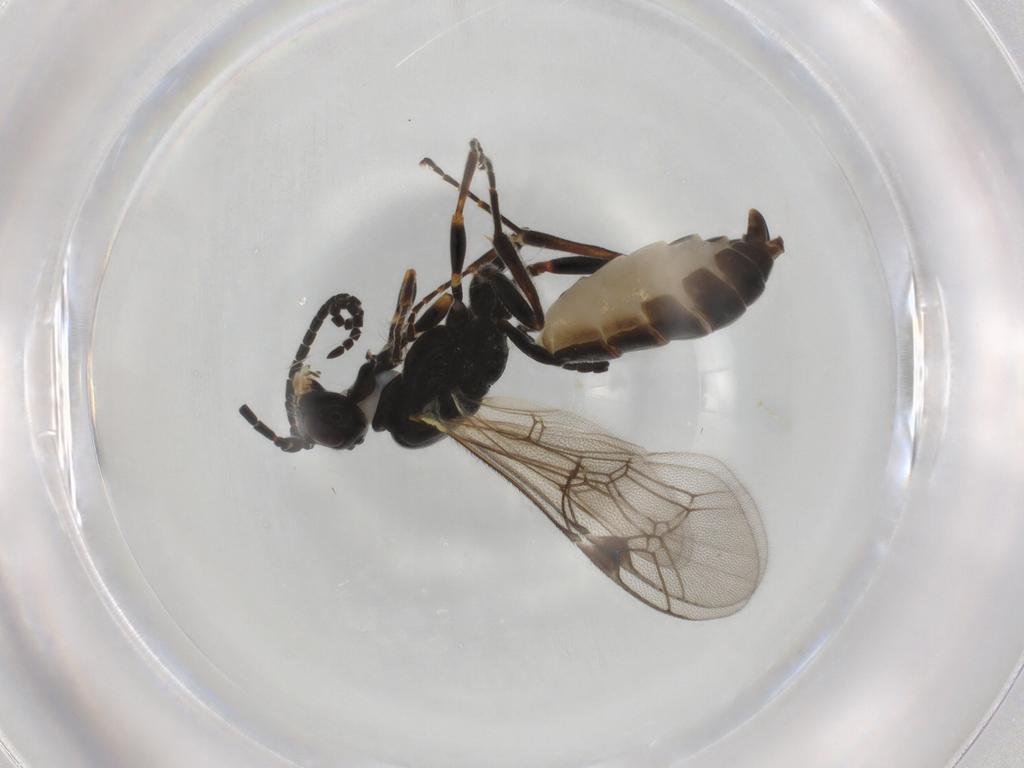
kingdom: Animalia
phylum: Arthropoda
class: Insecta
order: Hymenoptera
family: Ichneumonidae
